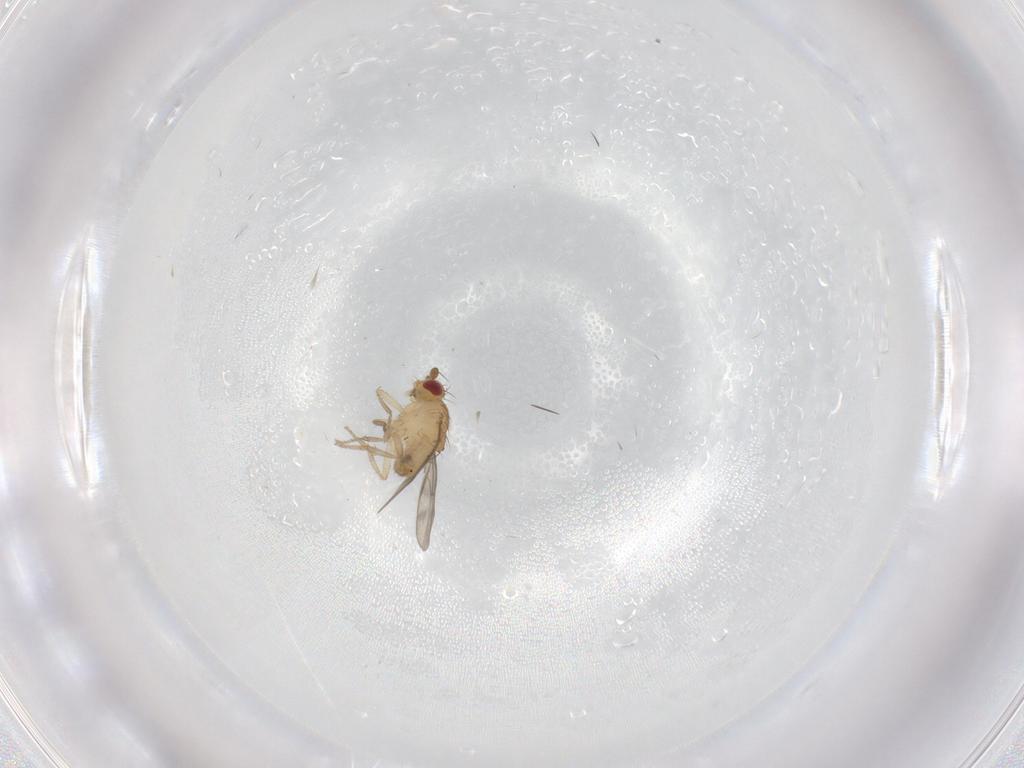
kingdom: Animalia
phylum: Arthropoda
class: Insecta
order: Diptera
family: Sphaeroceridae
